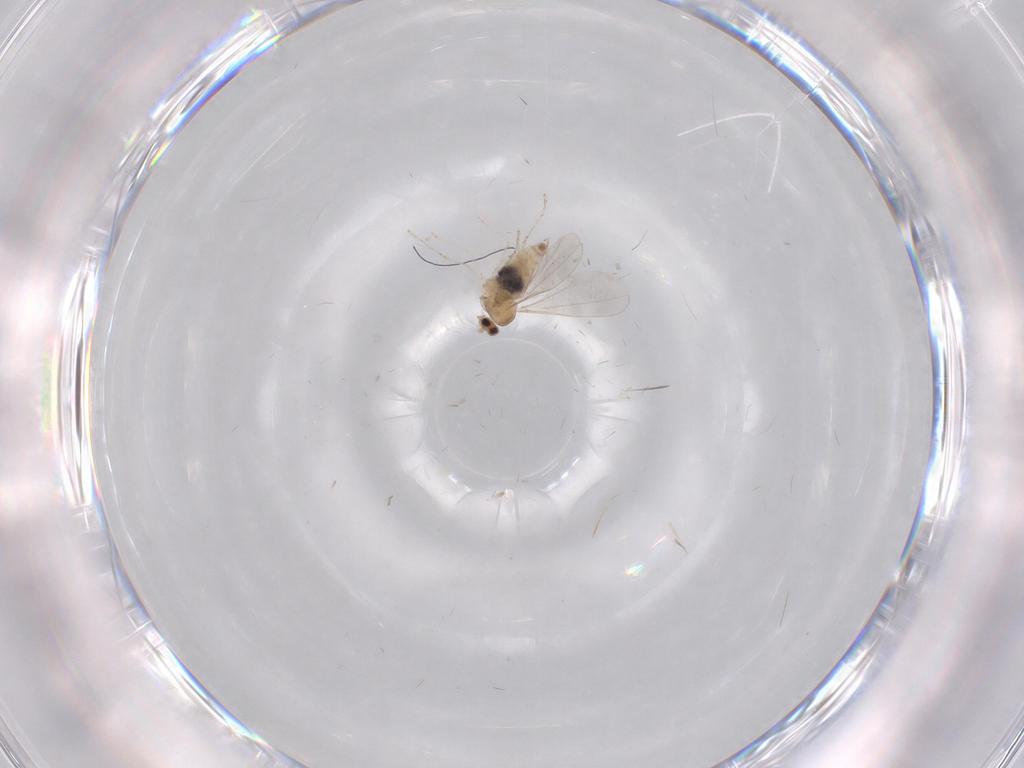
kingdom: Animalia
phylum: Arthropoda
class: Insecta
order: Diptera
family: Cecidomyiidae
